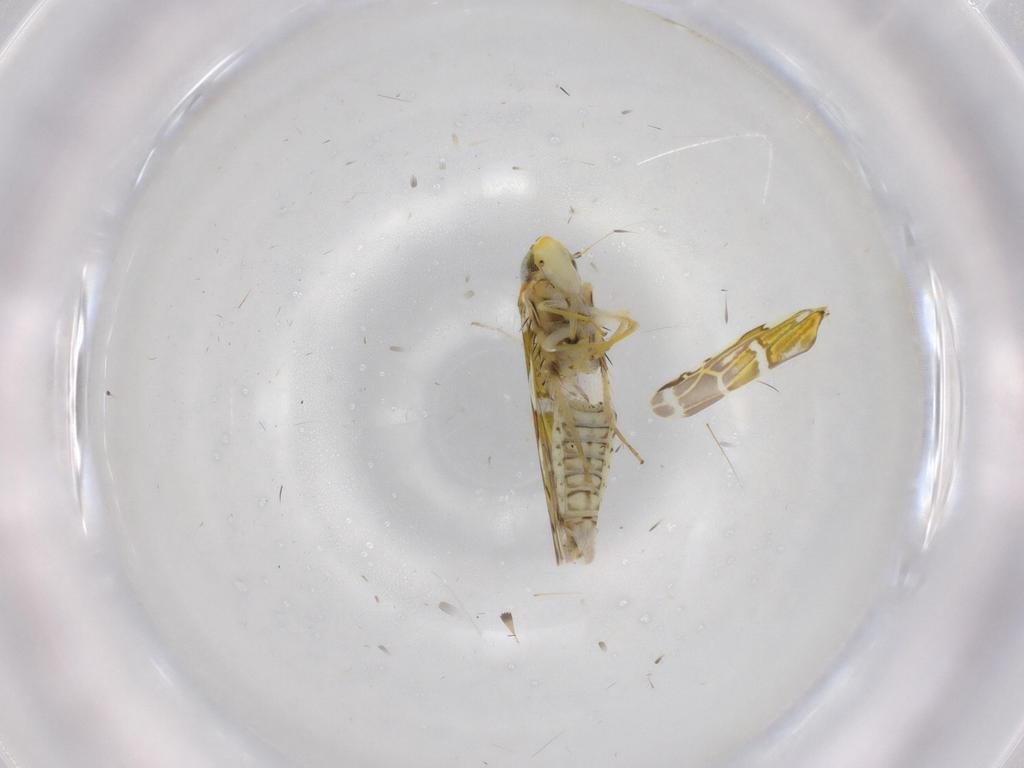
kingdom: Animalia
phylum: Arthropoda
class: Insecta
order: Hemiptera
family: Cicadellidae
